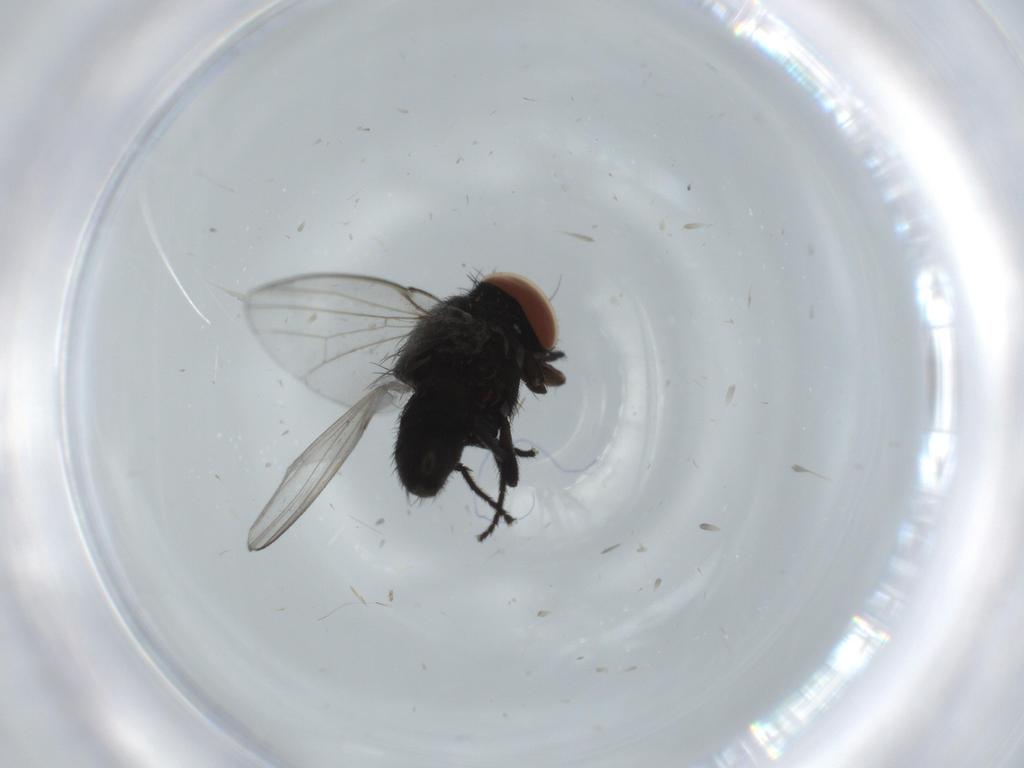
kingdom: Animalia
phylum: Arthropoda
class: Insecta
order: Diptera
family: Milichiidae
